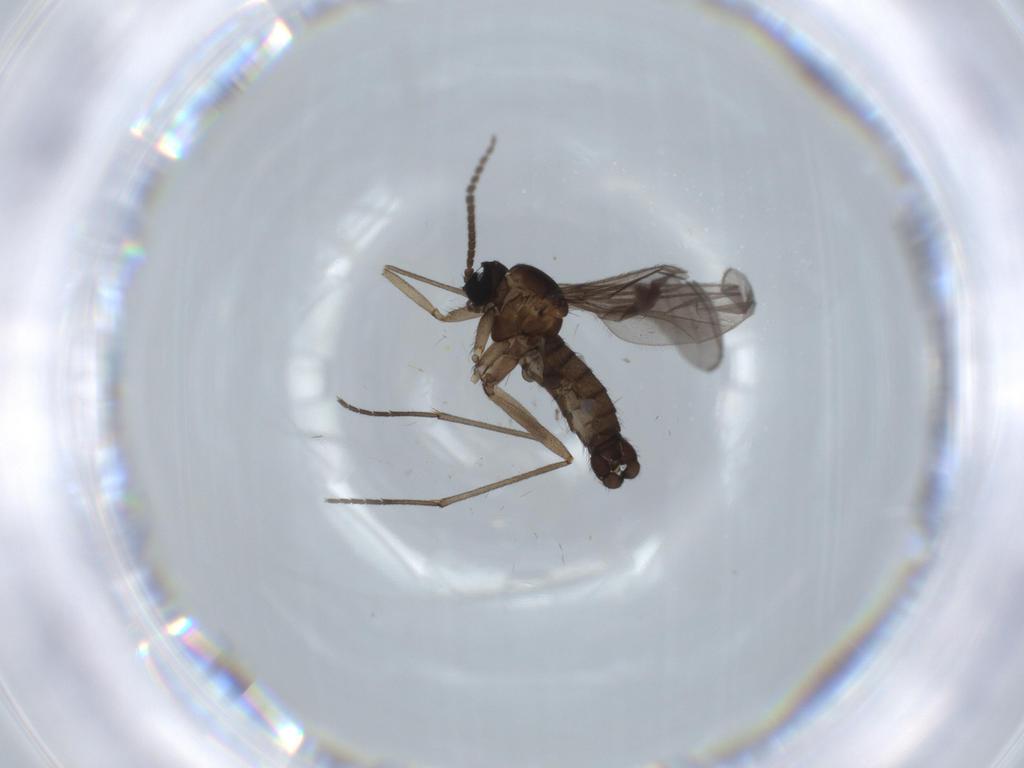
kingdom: Animalia
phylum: Arthropoda
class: Insecta
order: Diptera
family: Sciaridae
